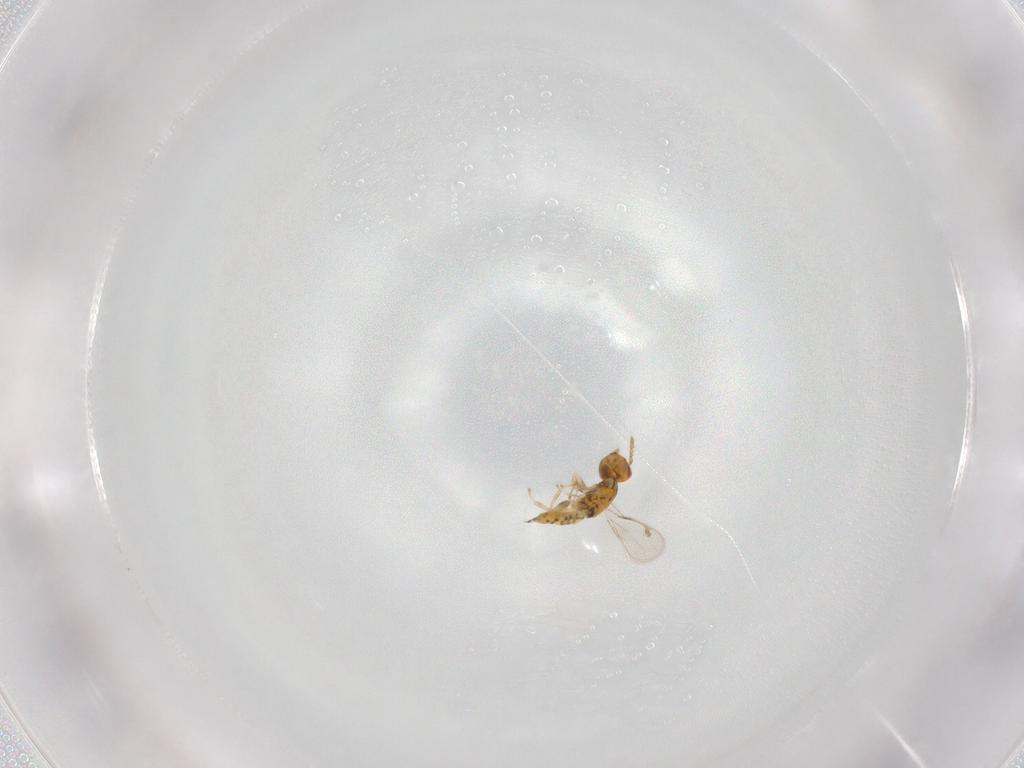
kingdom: Animalia
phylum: Arthropoda
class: Insecta
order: Hymenoptera
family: Eulophidae
